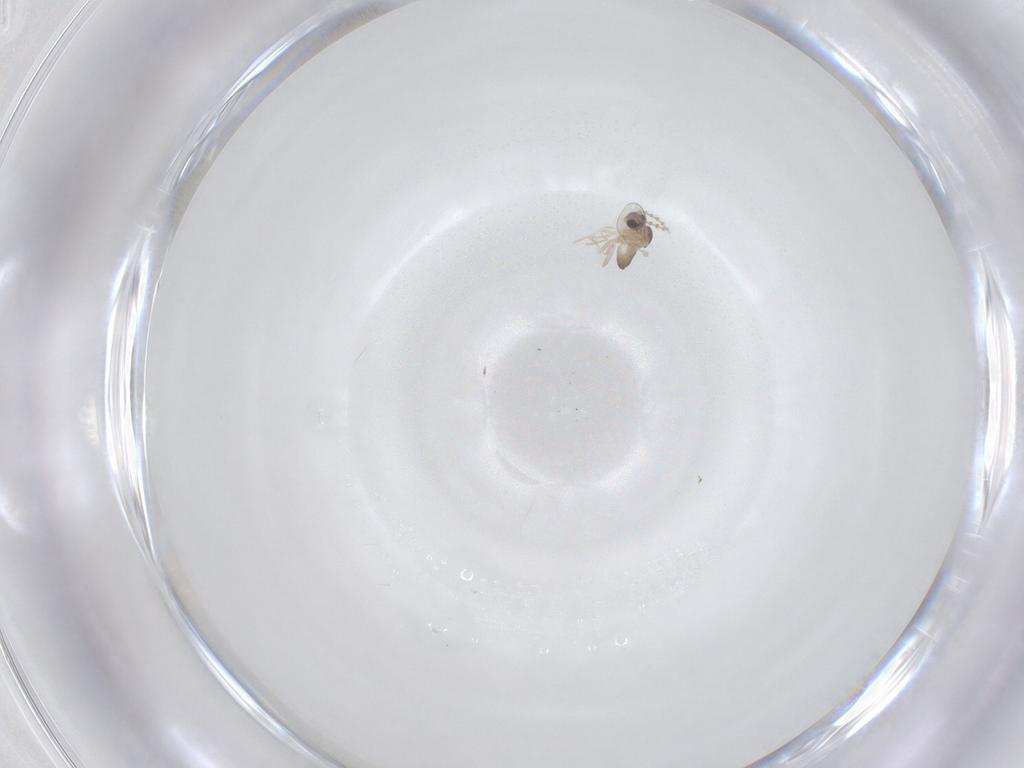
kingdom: Animalia
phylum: Arthropoda
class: Insecta
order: Diptera
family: Cecidomyiidae
